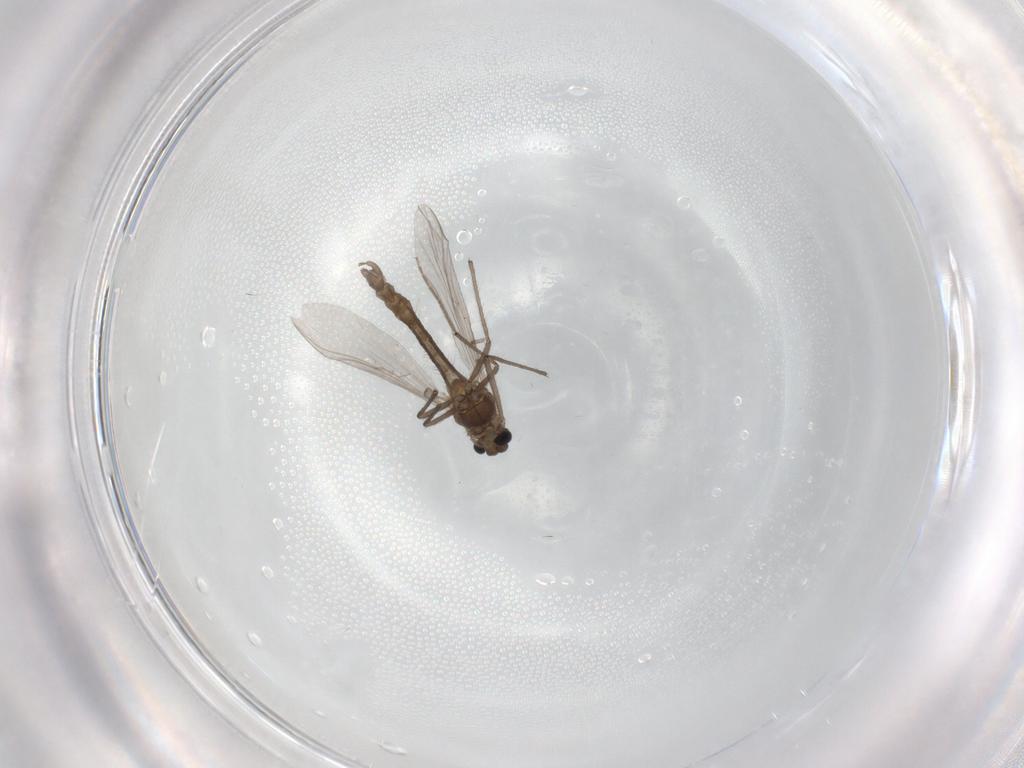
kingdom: Animalia
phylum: Arthropoda
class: Insecta
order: Diptera
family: Chironomidae
